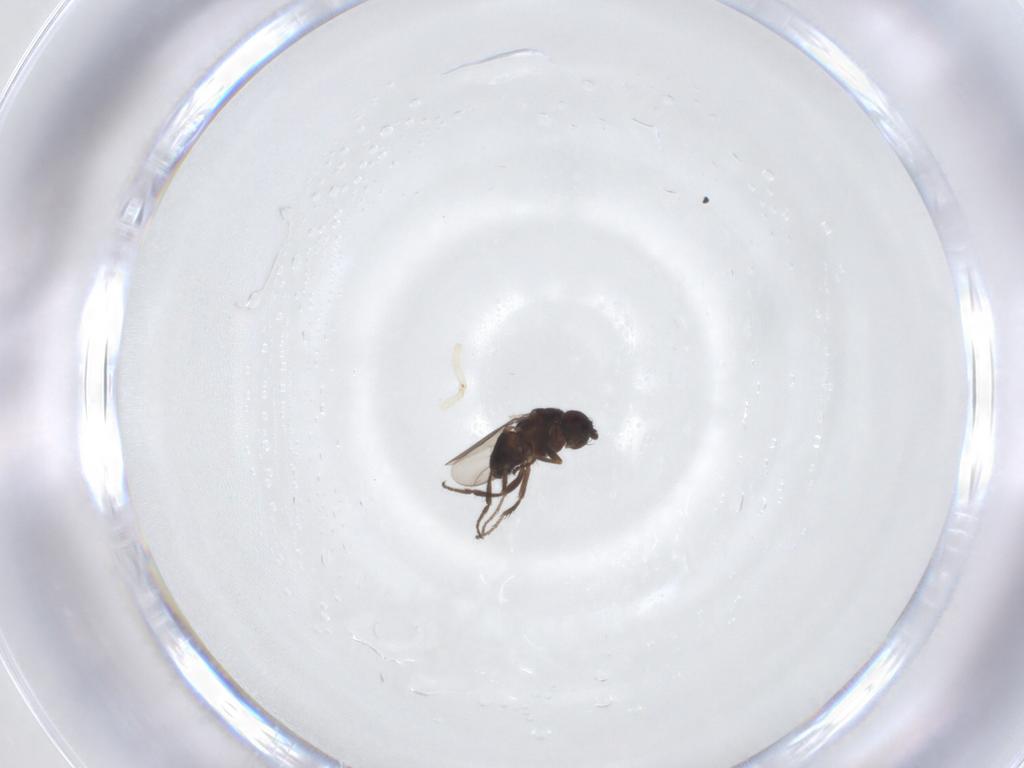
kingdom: Animalia
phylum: Arthropoda
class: Insecta
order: Diptera
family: Sphaeroceridae
